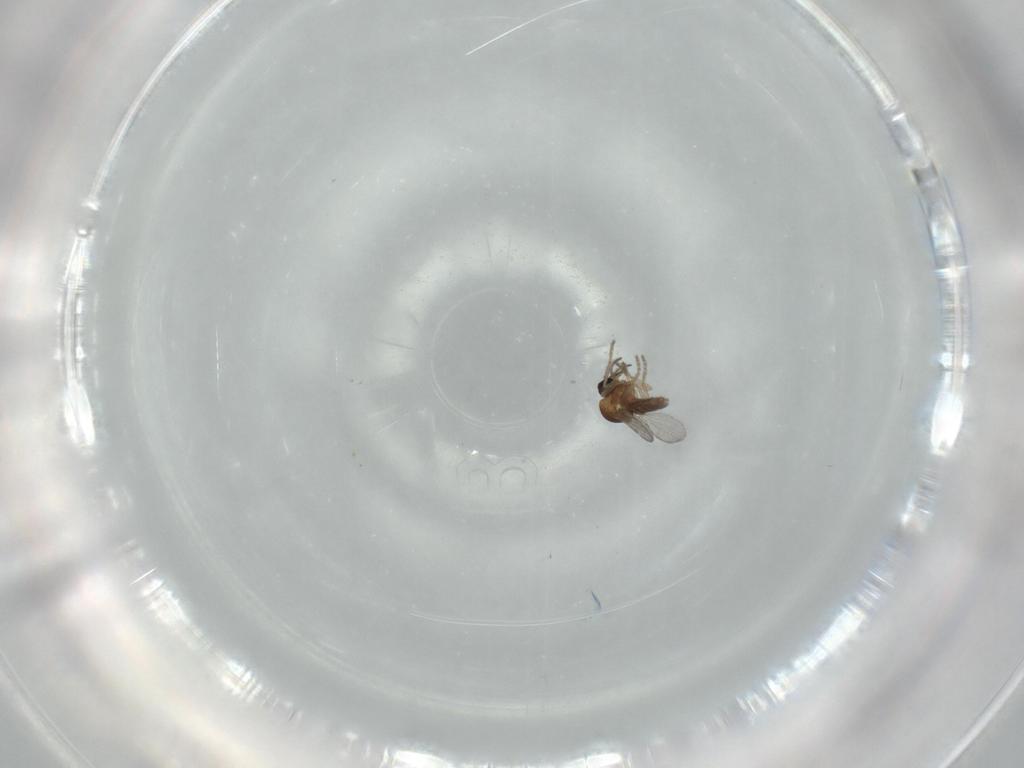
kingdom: Animalia
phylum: Arthropoda
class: Insecta
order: Diptera
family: Ceratopogonidae
